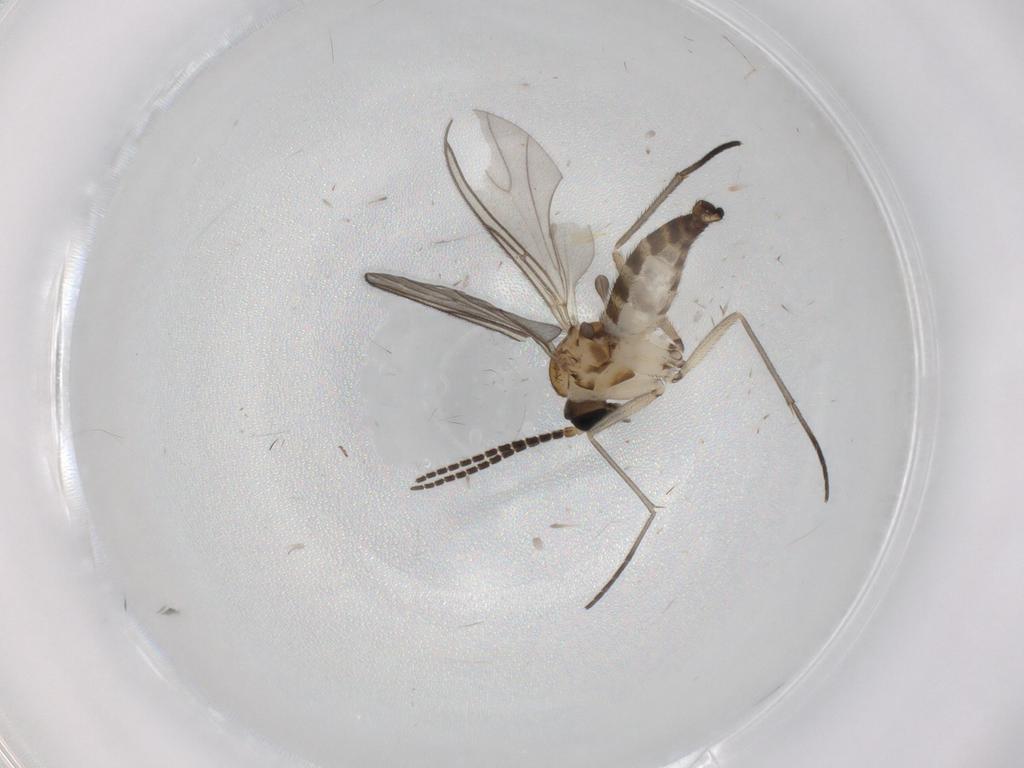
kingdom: Animalia
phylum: Arthropoda
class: Insecta
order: Diptera
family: Sciaridae
